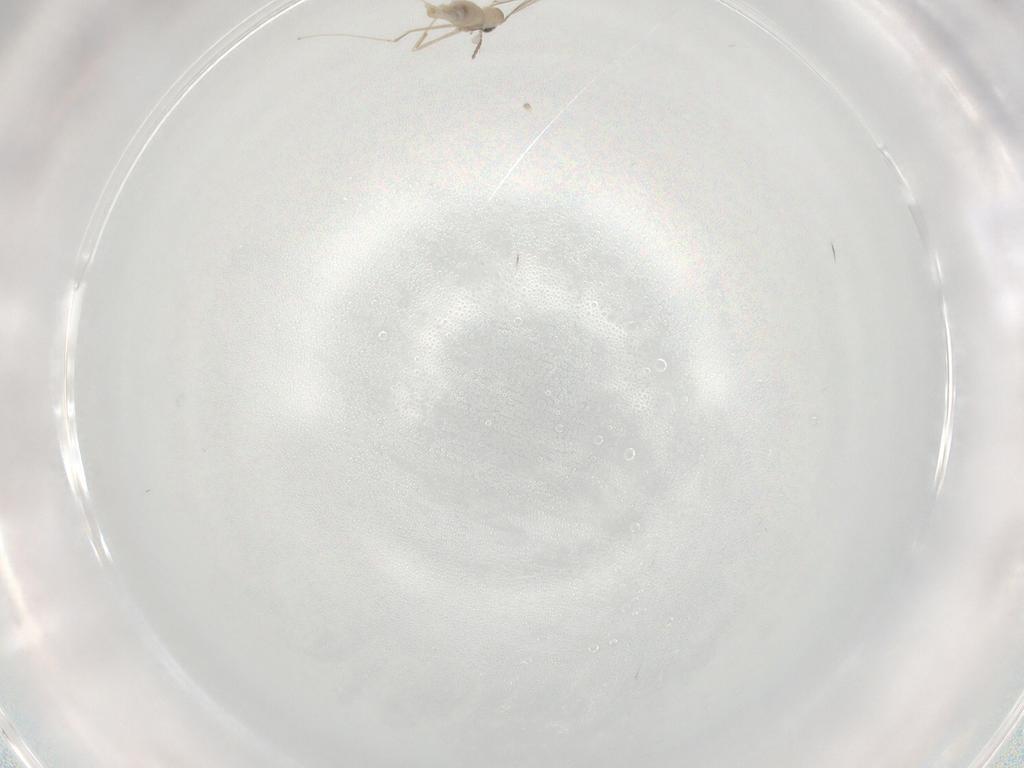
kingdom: Animalia
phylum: Arthropoda
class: Insecta
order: Diptera
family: Cecidomyiidae
